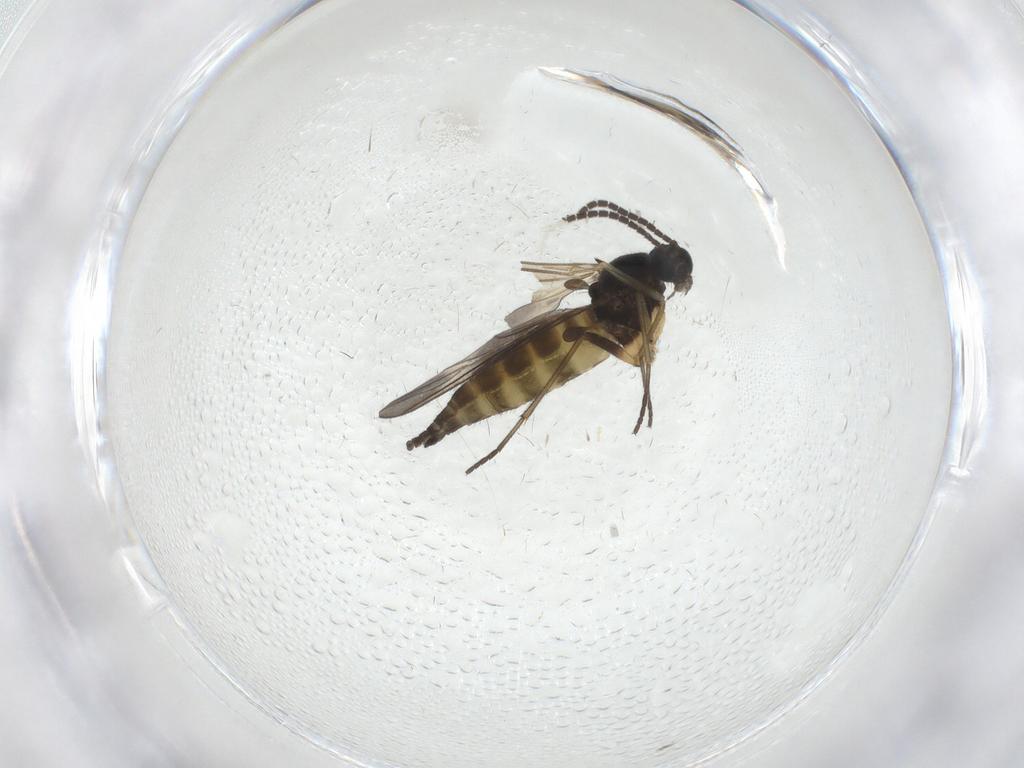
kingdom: Animalia
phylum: Arthropoda
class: Insecta
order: Diptera
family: Sciaridae
